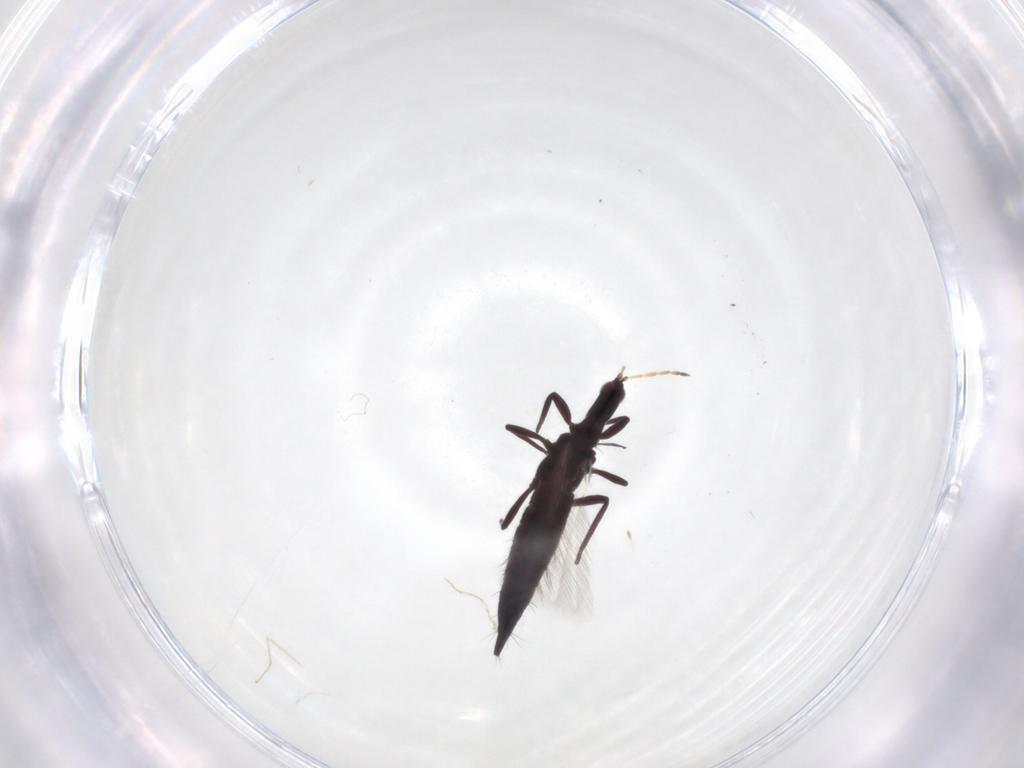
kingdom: Animalia
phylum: Arthropoda
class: Insecta
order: Thysanoptera
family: Phlaeothripidae
